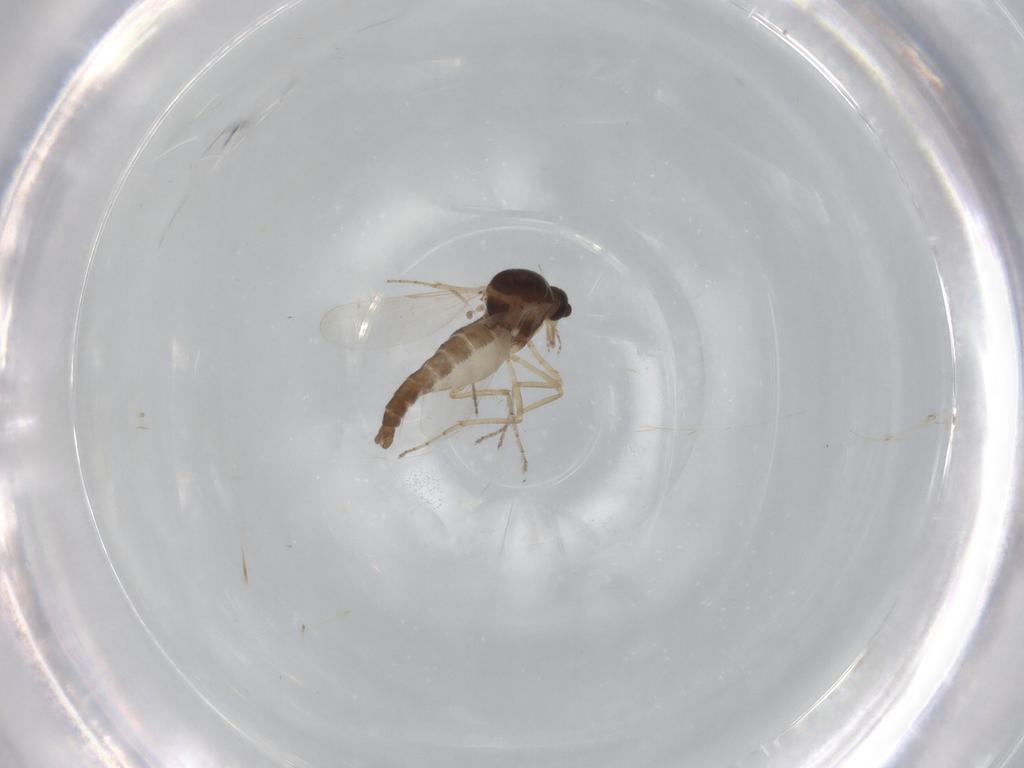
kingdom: Animalia
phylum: Arthropoda
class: Insecta
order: Diptera
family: Ceratopogonidae
